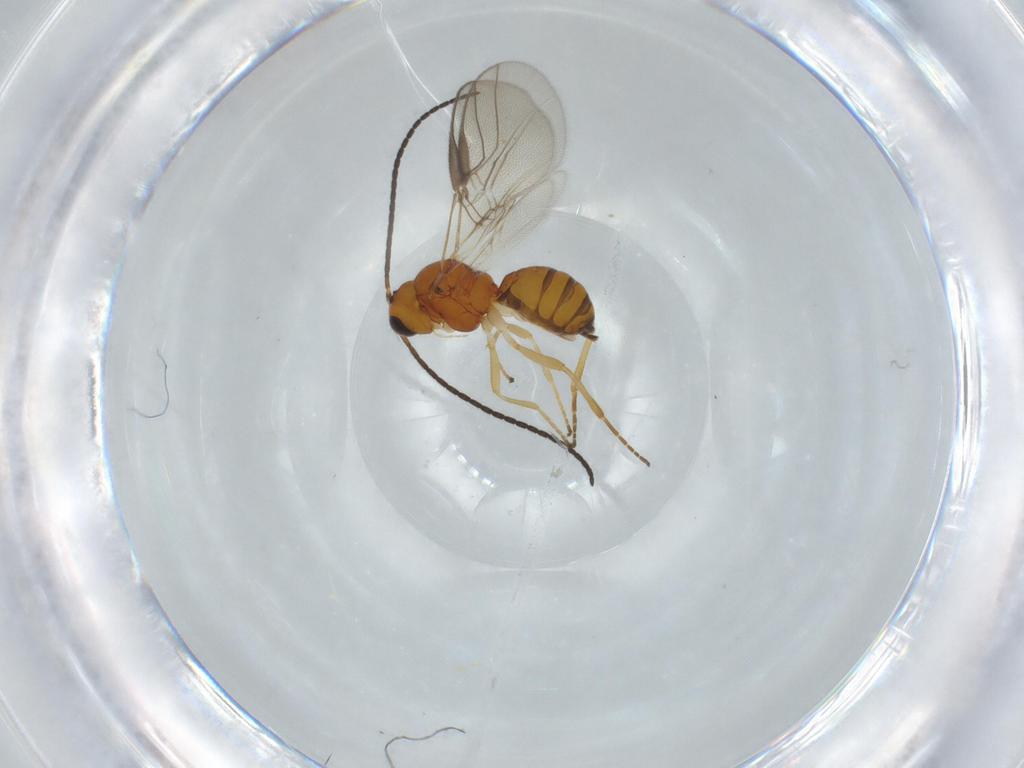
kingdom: Animalia
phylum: Arthropoda
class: Insecta
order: Hymenoptera
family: Braconidae
